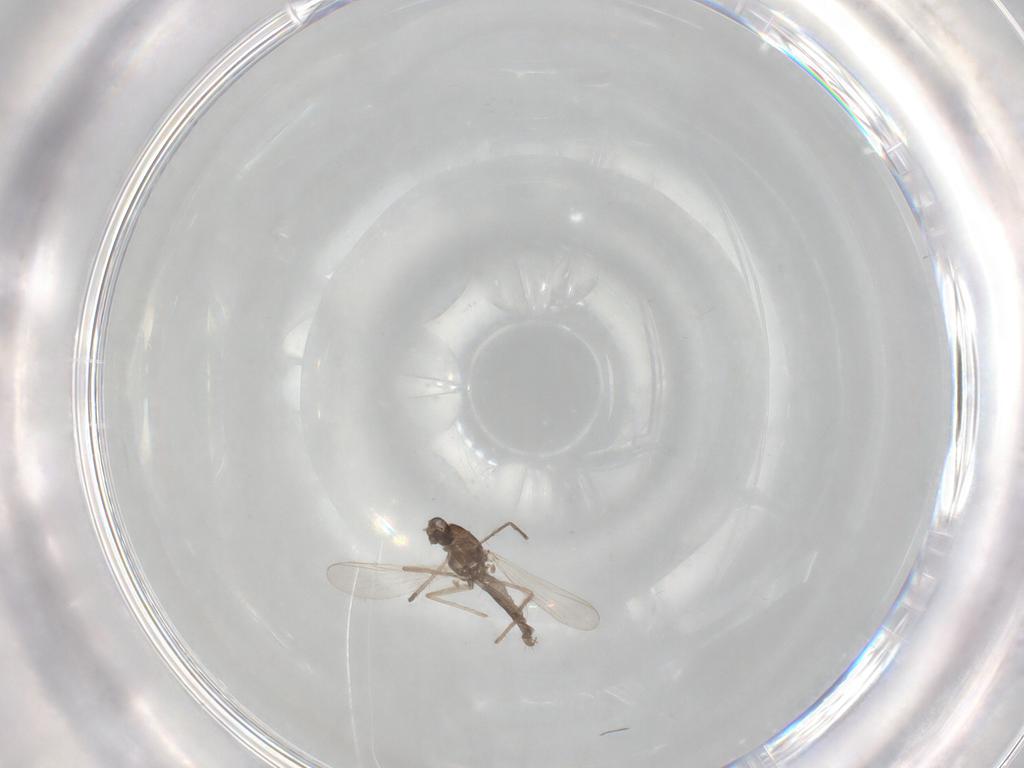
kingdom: Animalia
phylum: Arthropoda
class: Insecta
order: Diptera
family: Chironomidae
